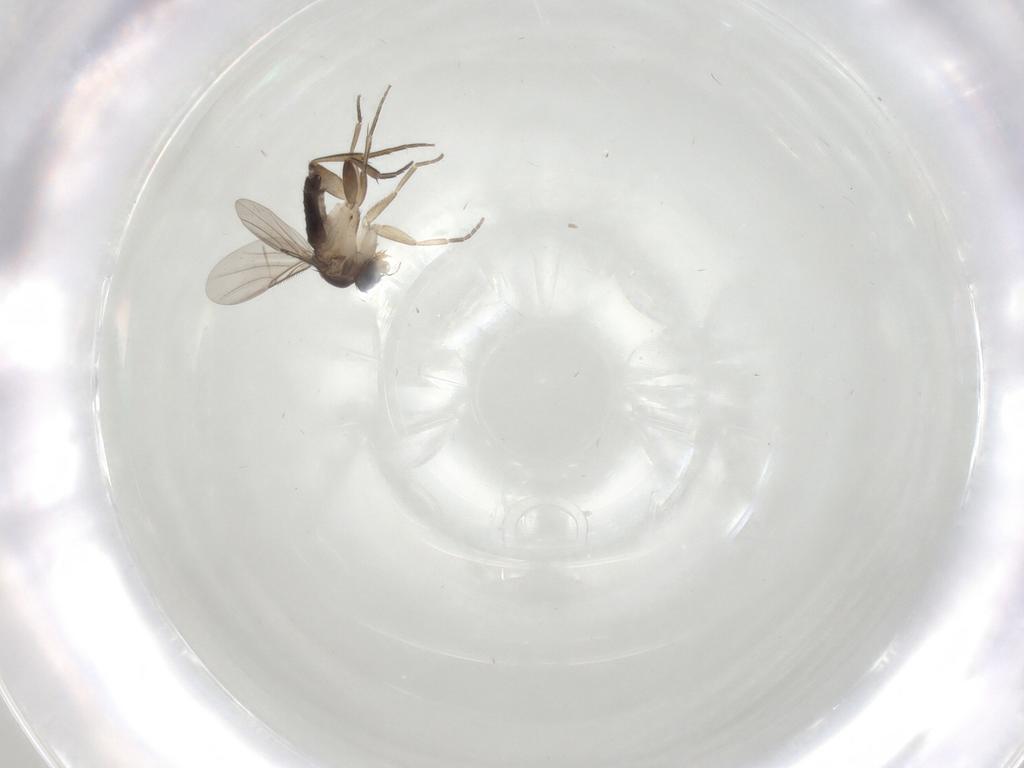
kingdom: Animalia
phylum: Arthropoda
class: Insecta
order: Diptera
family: Phoridae
